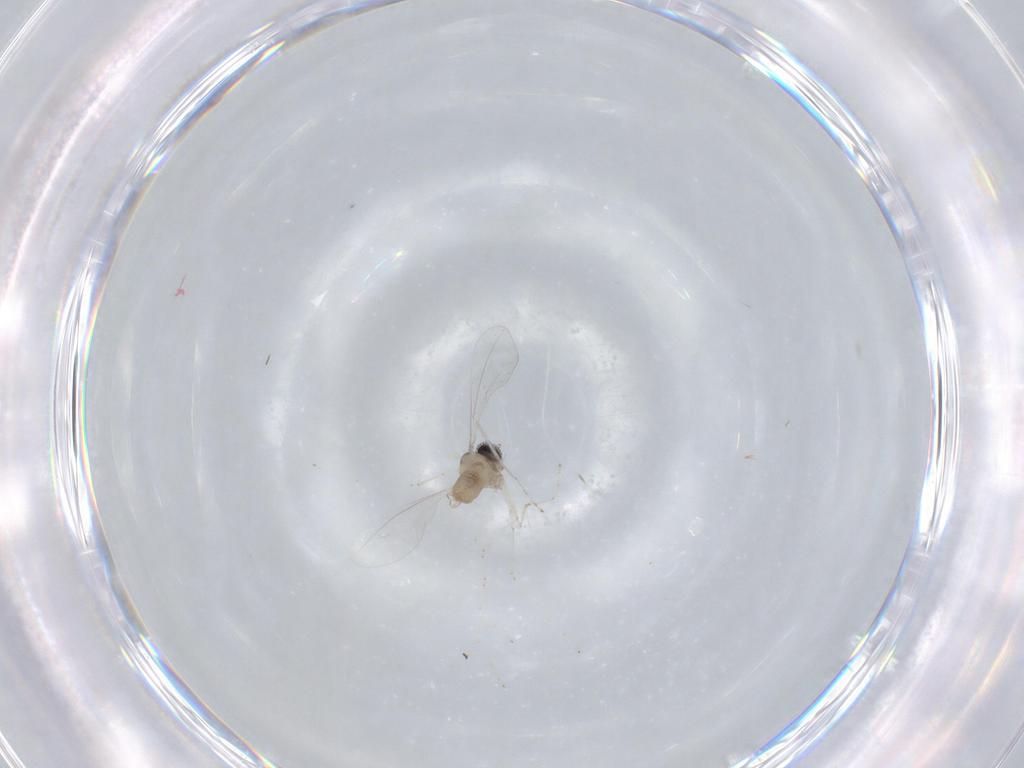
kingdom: Animalia
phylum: Arthropoda
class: Insecta
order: Diptera
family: Cecidomyiidae
